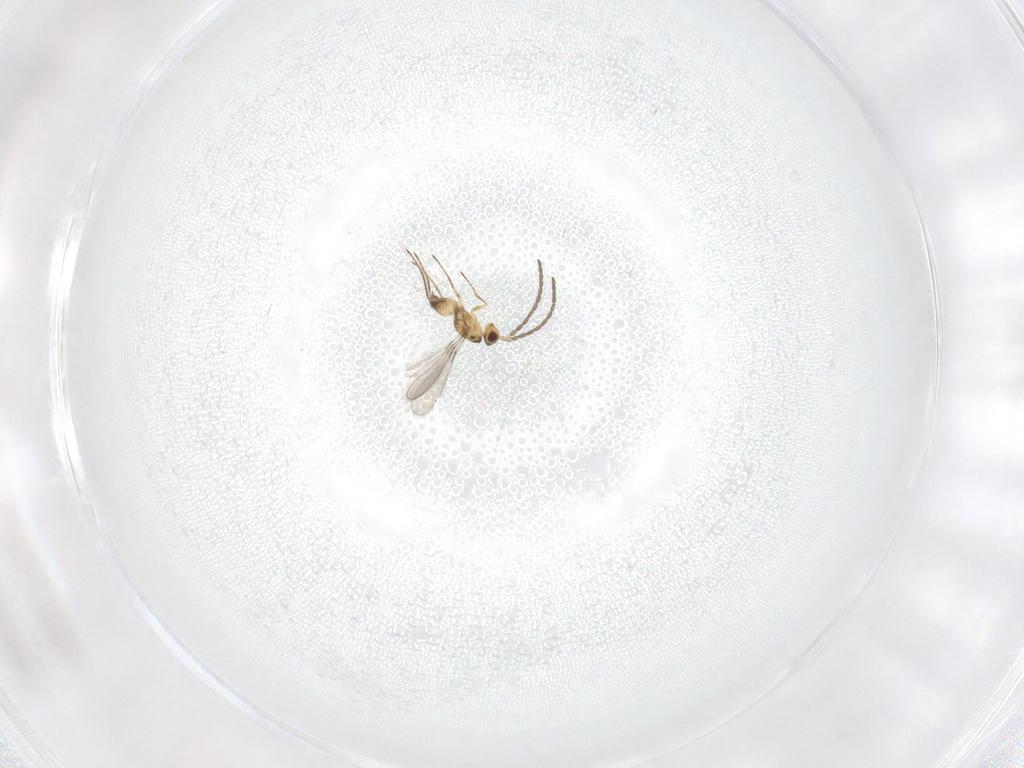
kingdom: Animalia
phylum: Arthropoda
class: Insecta
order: Hymenoptera
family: Mymaridae
